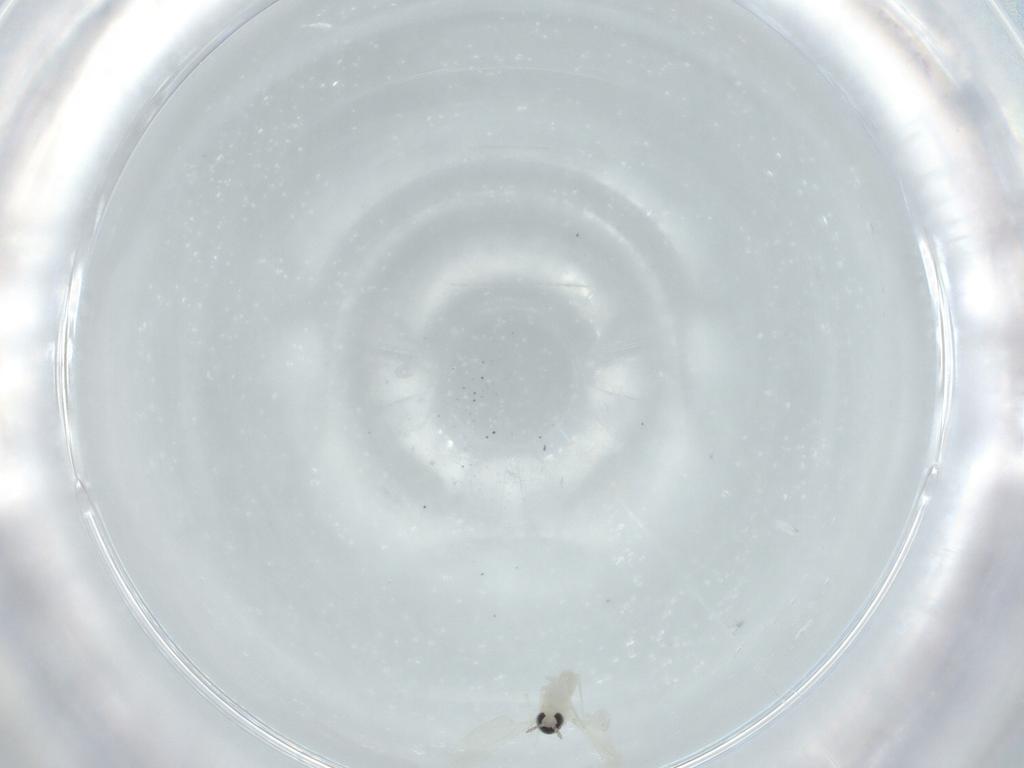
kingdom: Animalia
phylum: Arthropoda
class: Insecta
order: Diptera
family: Cecidomyiidae
